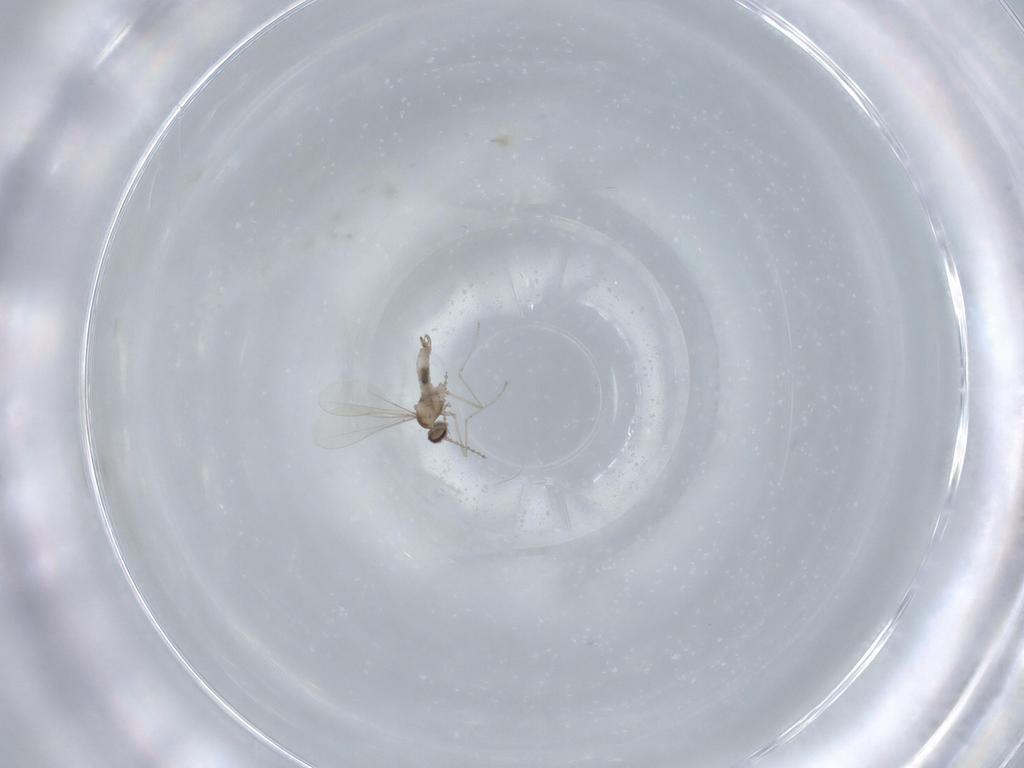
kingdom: Animalia
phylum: Arthropoda
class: Insecta
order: Diptera
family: Cecidomyiidae
